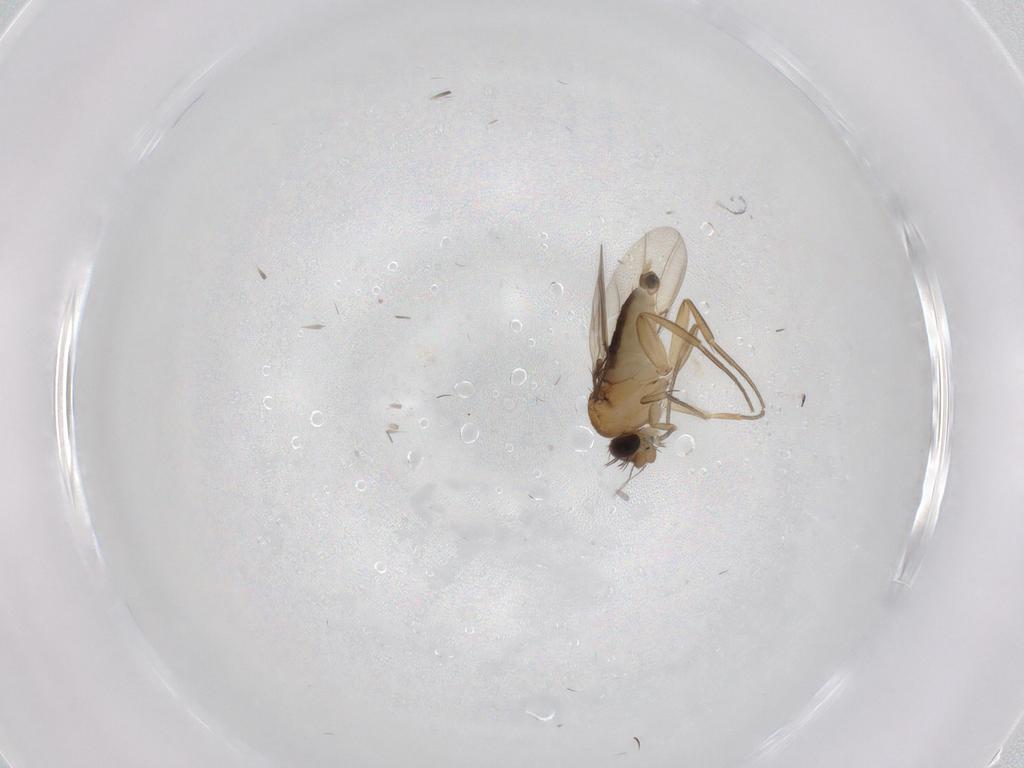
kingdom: Animalia
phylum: Arthropoda
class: Insecta
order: Diptera
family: Phoridae
